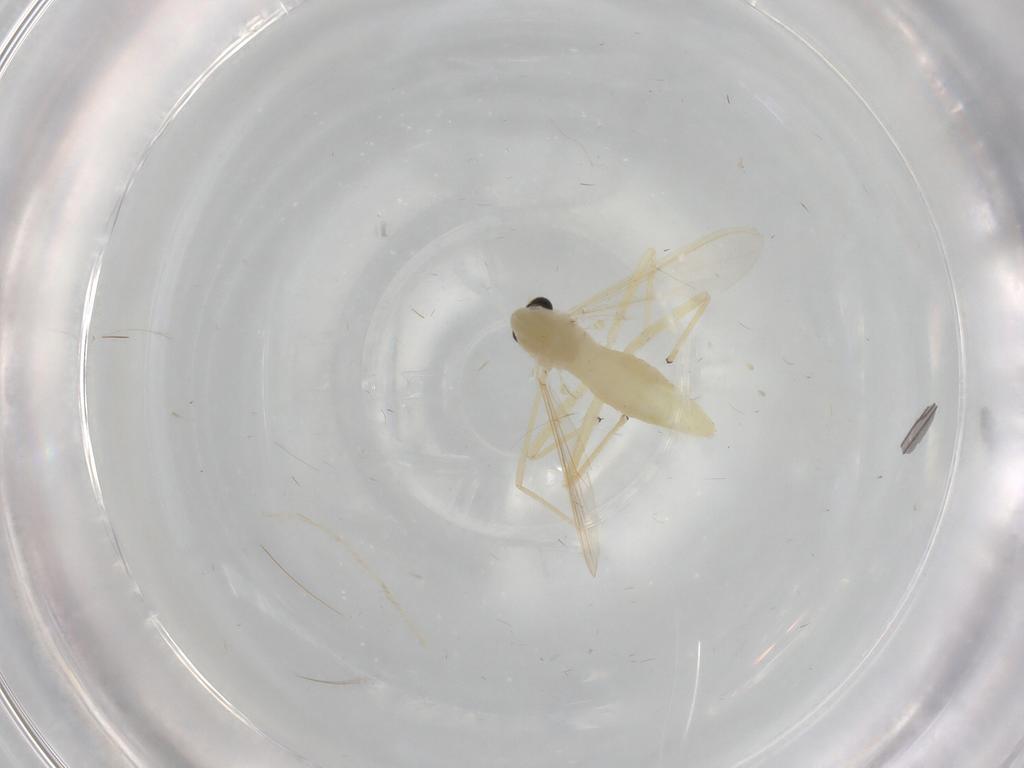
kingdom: Animalia
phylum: Arthropoda
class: Insecta
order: Diptera
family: Chironomidae
